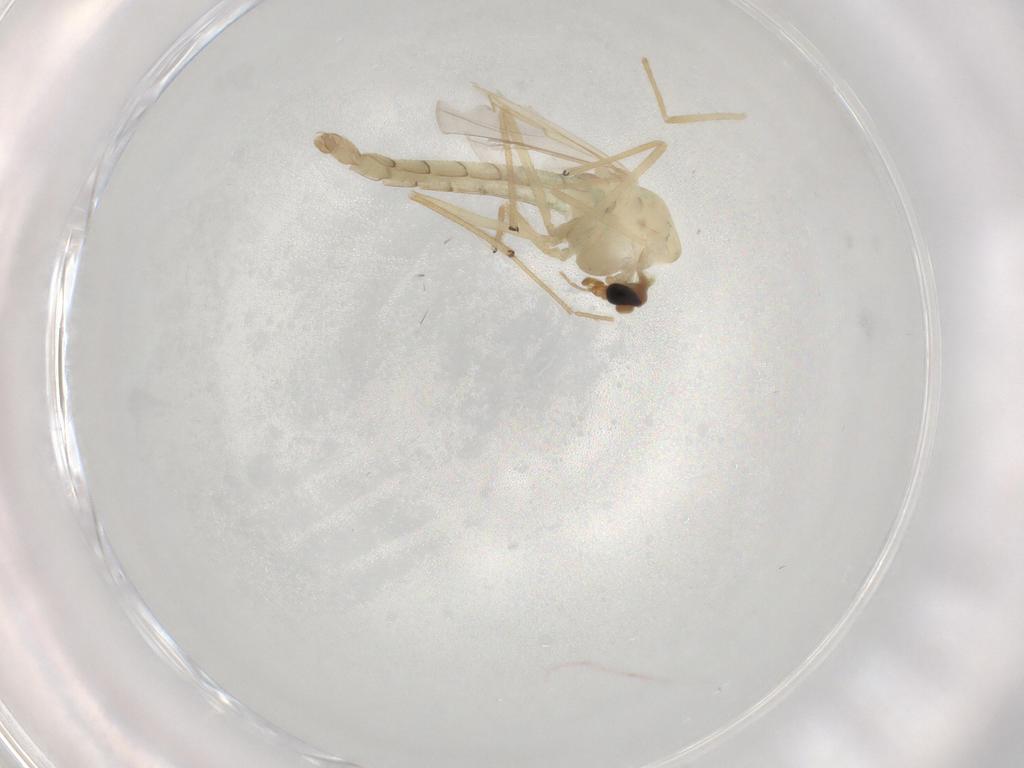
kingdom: Animalia
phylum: Arthropoda
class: Insecta
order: Diptera
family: Chironomidae
